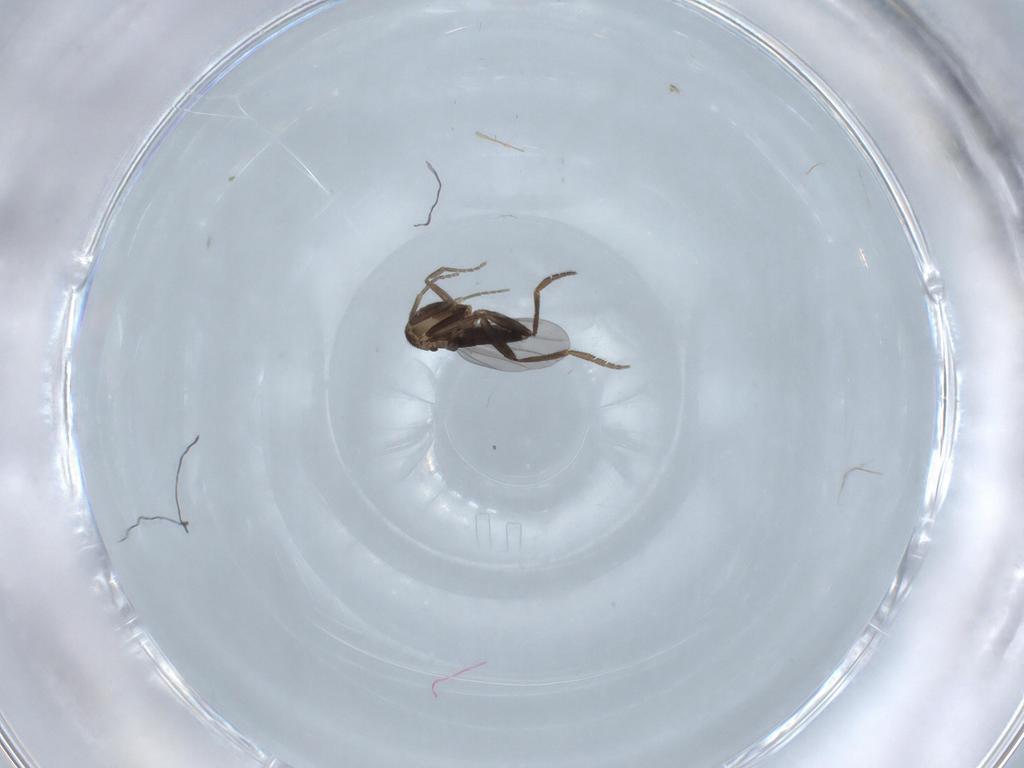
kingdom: Animalia
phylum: Arthropoda
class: Insecta
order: Diptera
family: Phoridae
